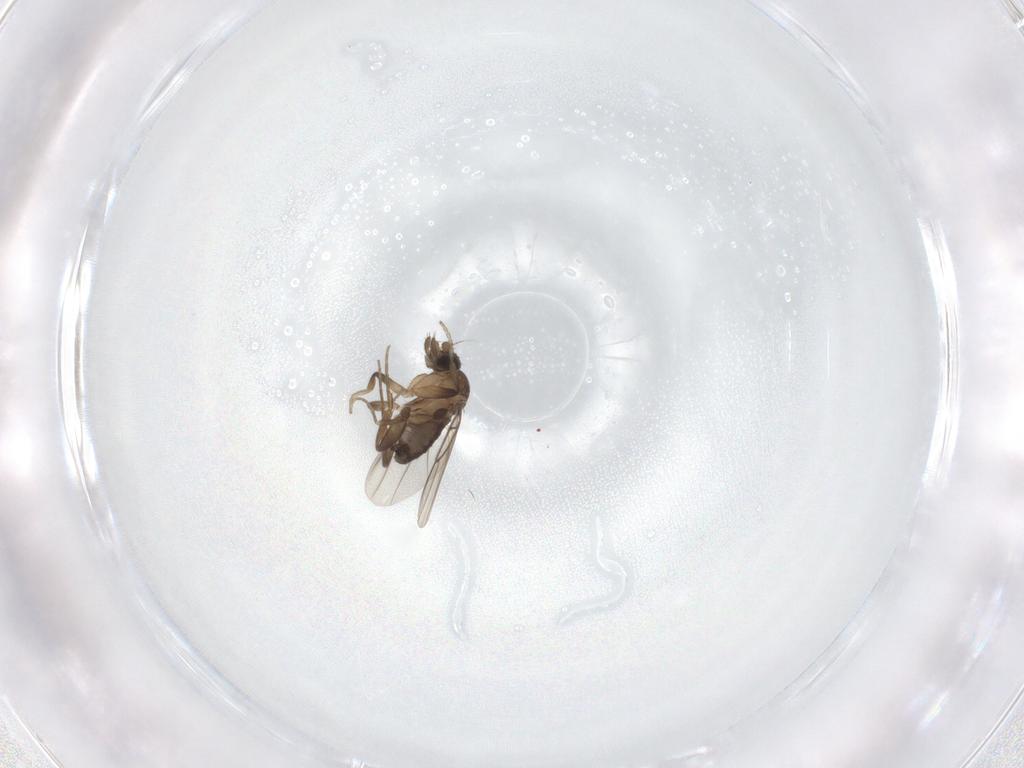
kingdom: Animalia
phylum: Arthropoda
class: Insecta
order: Diptera
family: Phoridae
